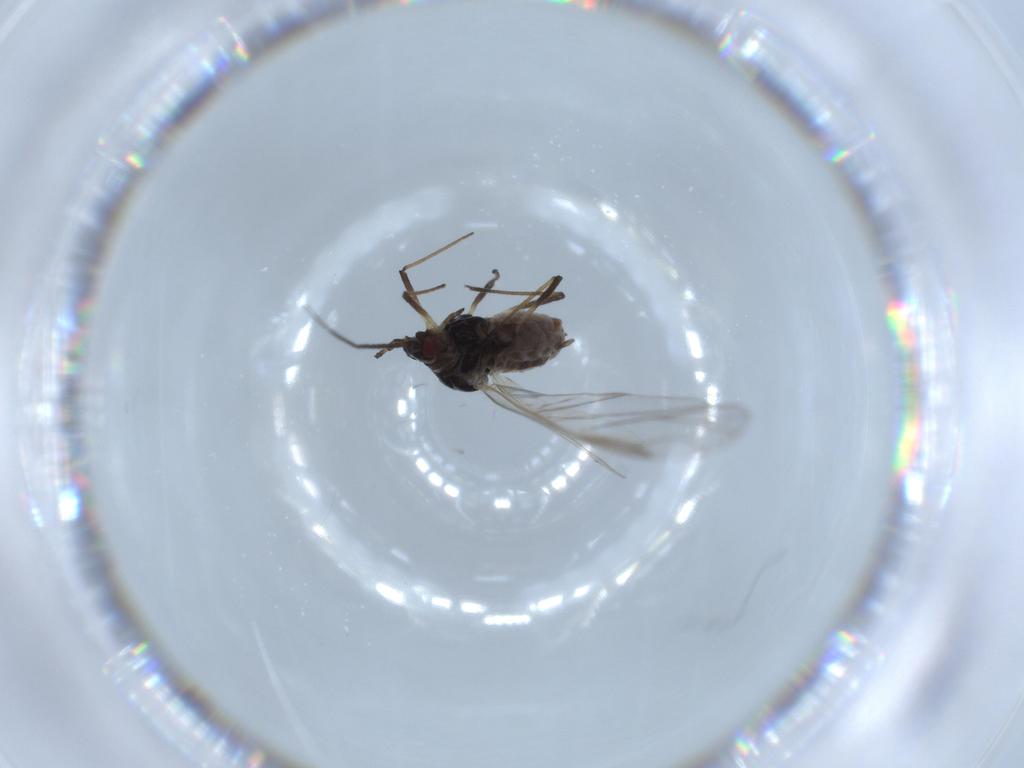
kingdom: Animalia
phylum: Arthropoda
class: Insecta
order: Hemiptera
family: Aphididae
